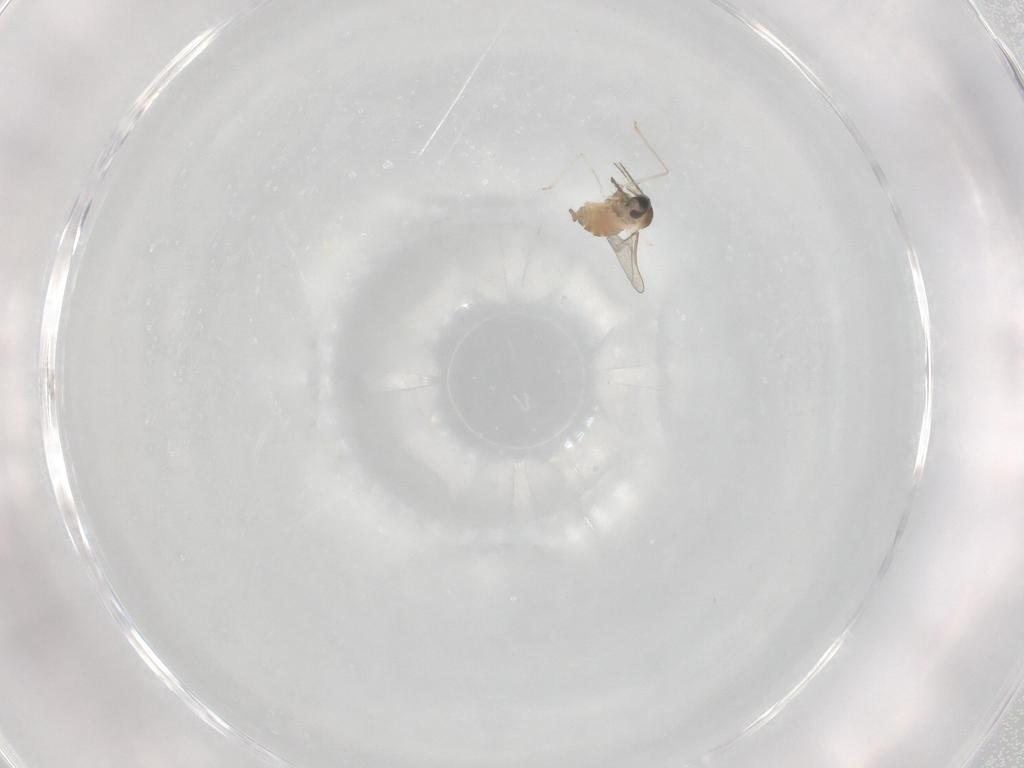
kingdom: Animalia
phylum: Arthropoda
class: Insecta
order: Diptera
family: Cecidomyiidae
